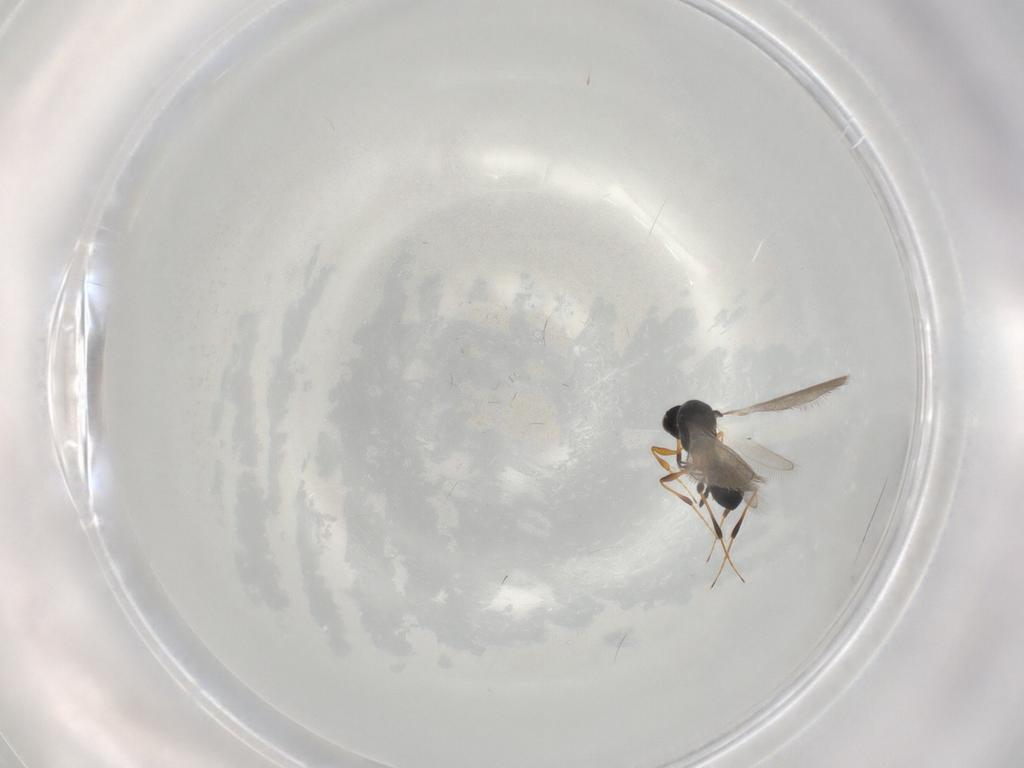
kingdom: Animalia
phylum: Arthropoda
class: Insecta
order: Hymenoptera
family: Platygastridae
